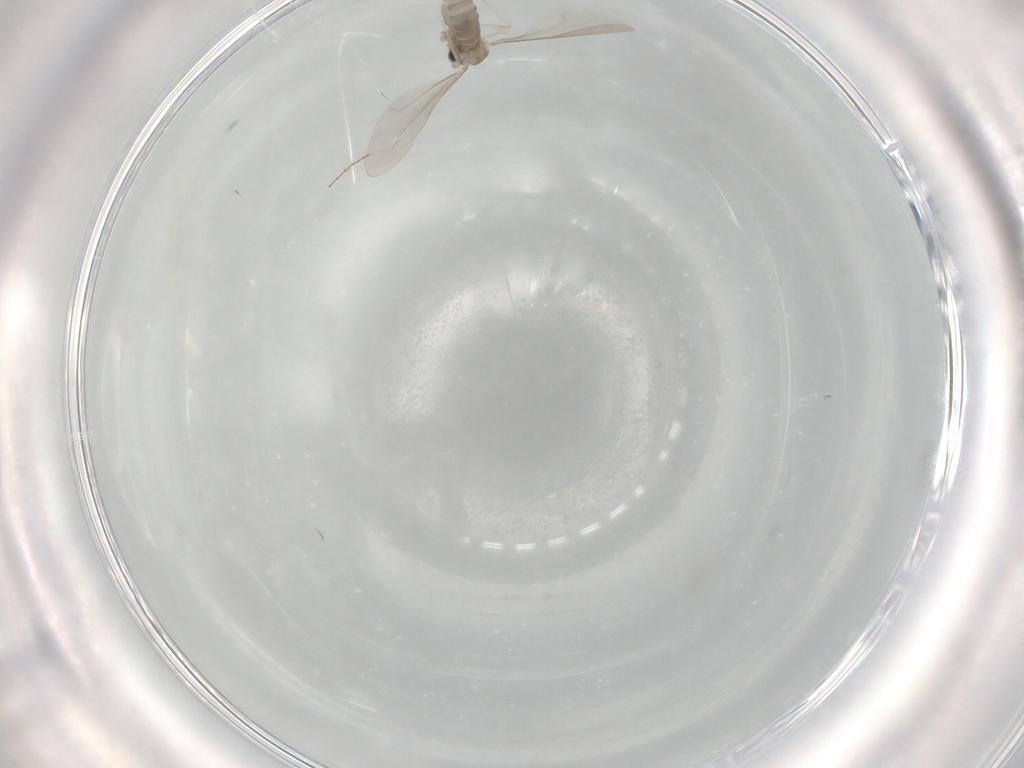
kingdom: Animalia
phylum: Arthropoda
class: Insecta
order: Diptera
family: Cecidomyiidae
